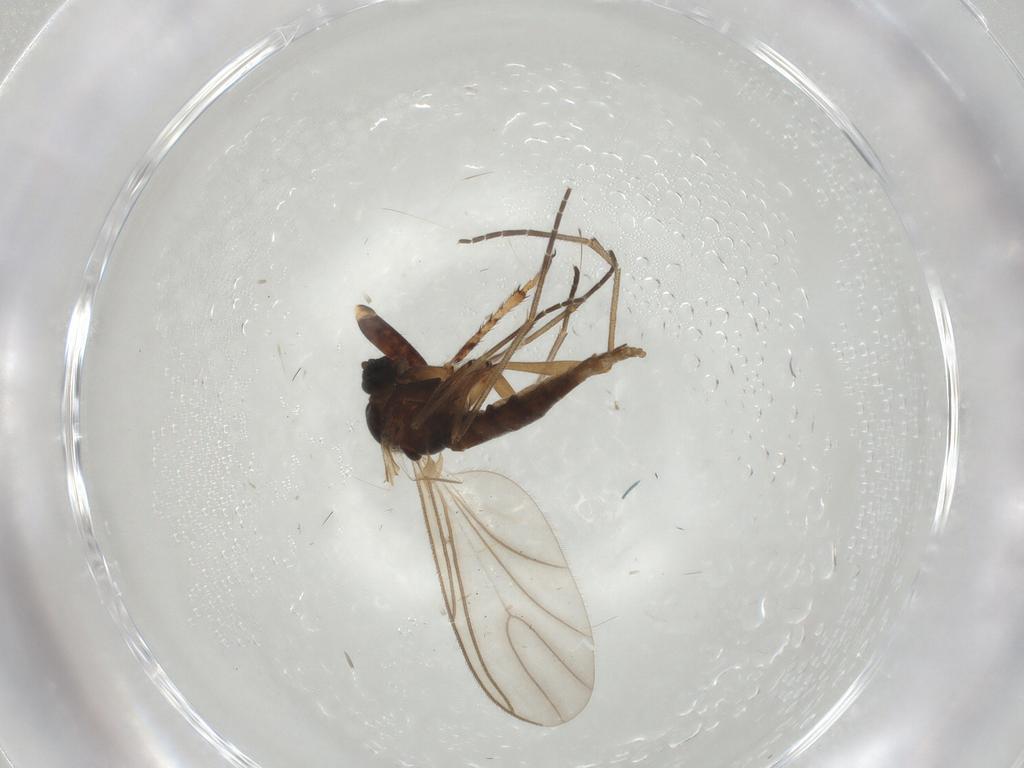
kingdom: Animalia
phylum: Arthropoda
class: Insecta
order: Diptera
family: Sciaridae
